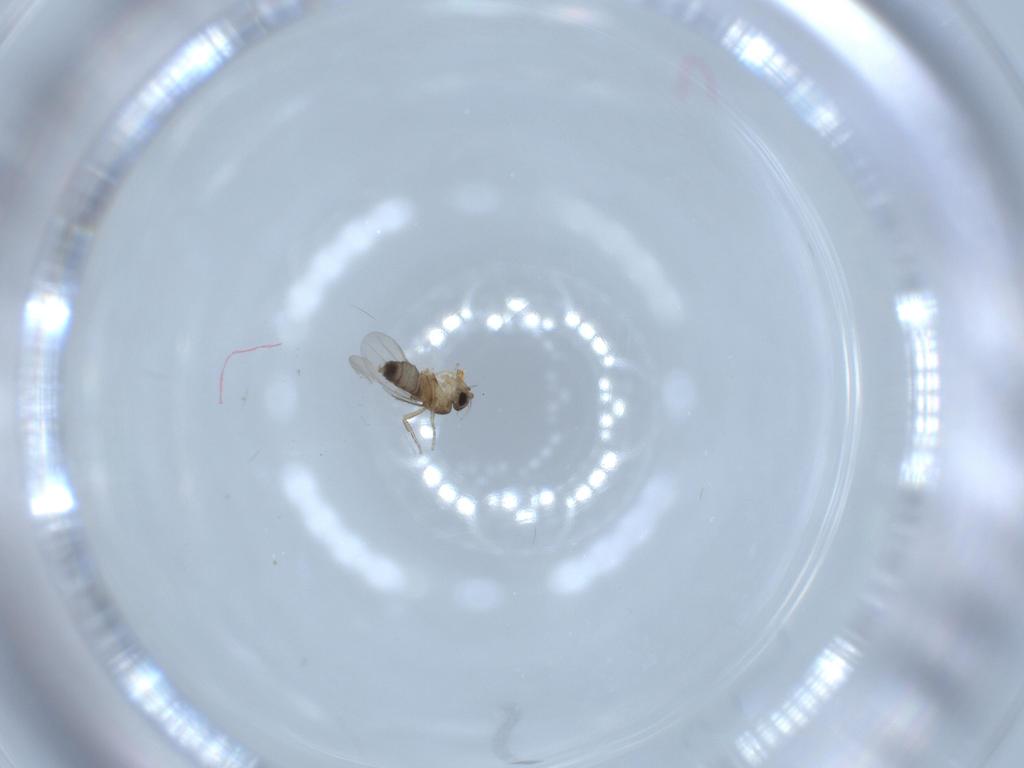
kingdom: Animalia
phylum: Arthropoda
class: Insecta
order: Diptera
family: Phoridae
